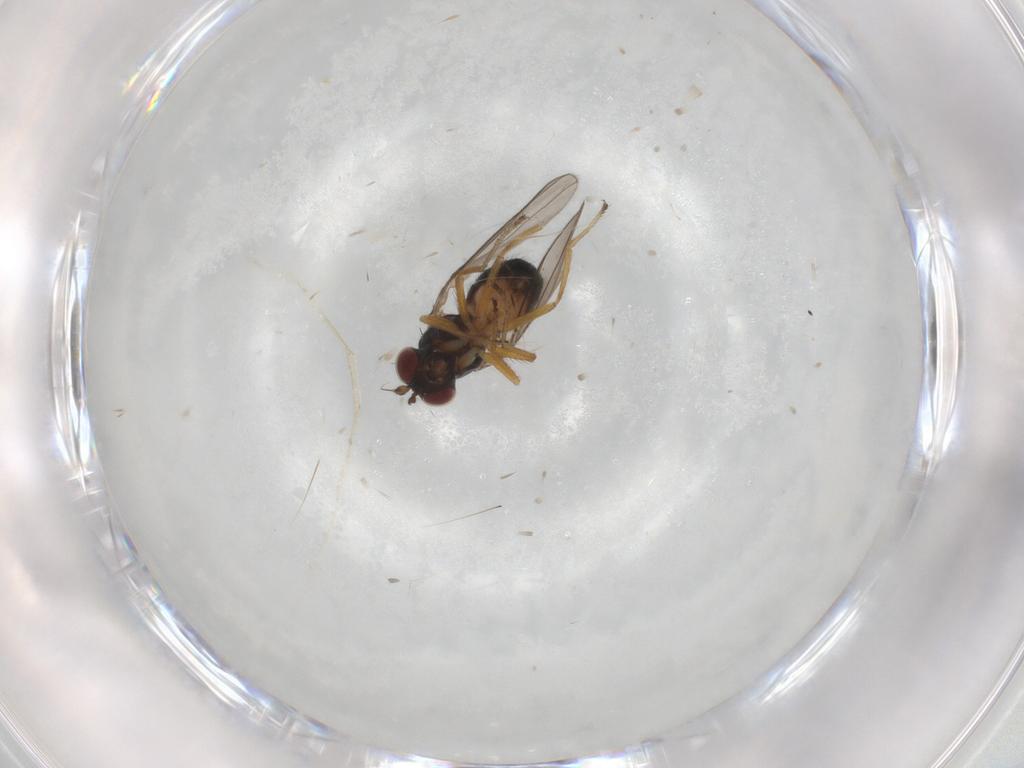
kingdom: Animalia
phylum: Arthropoda
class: Insecta
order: Diptera
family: Ephydridae
